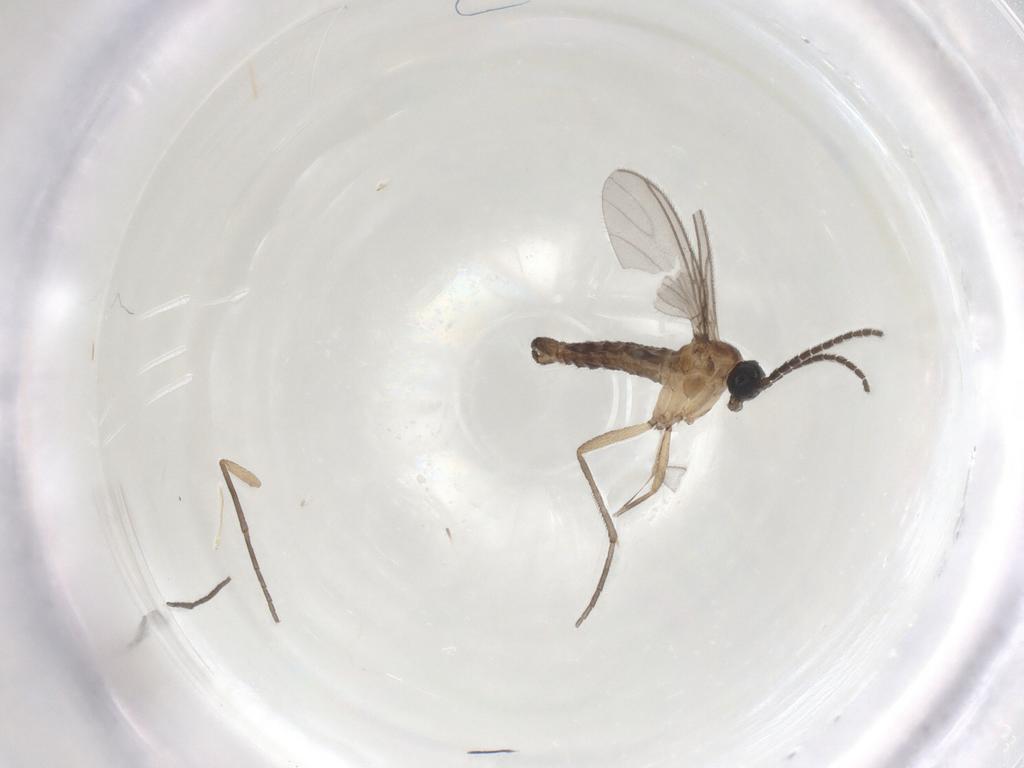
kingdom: Animalia
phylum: Arthropoda
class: Insecta
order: Diptera
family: Sciaridae
